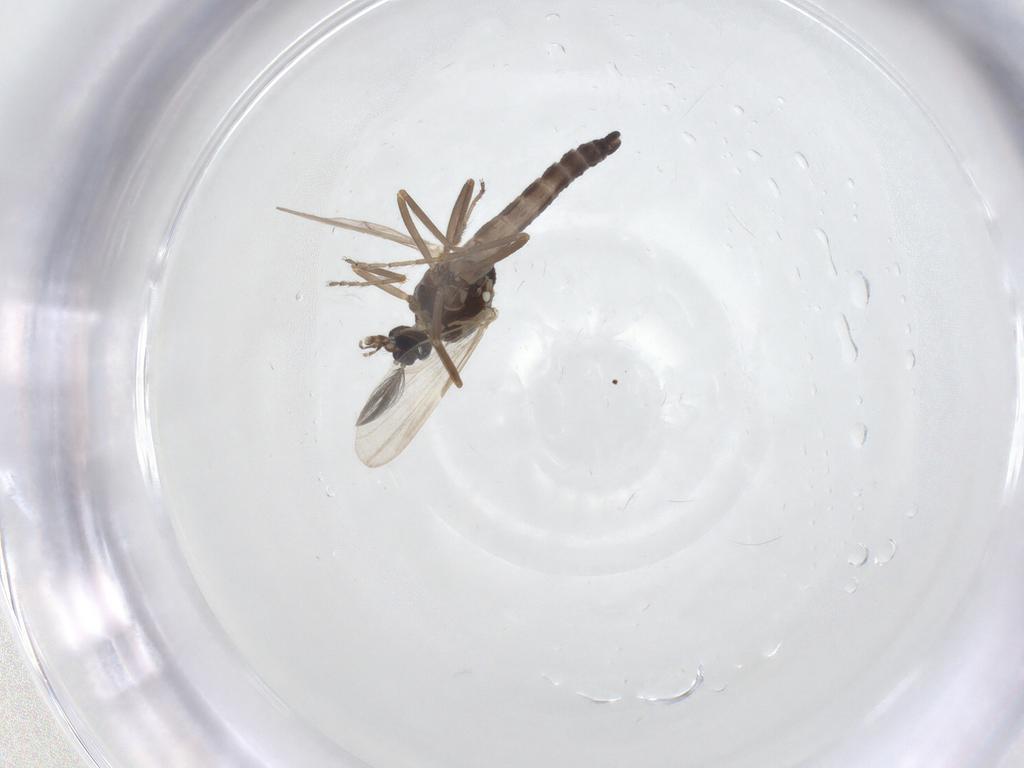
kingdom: Animalia
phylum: Arthropoda
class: Insecta
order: Diptera
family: Ceratopogonidae
